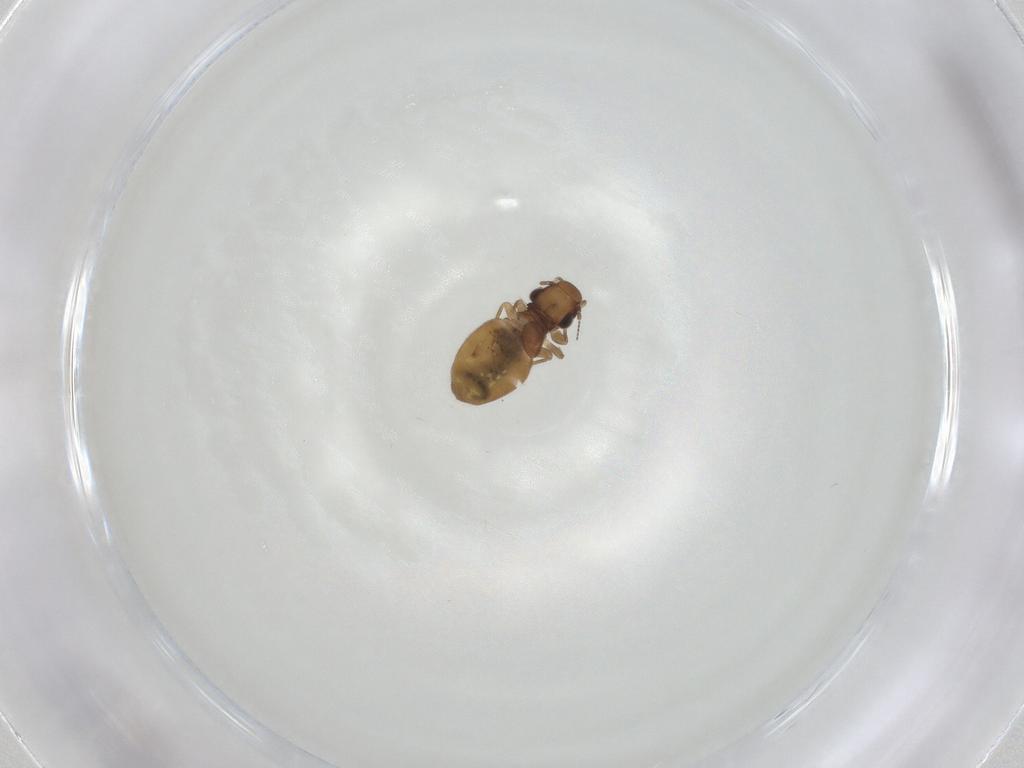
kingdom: Animalia
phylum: Arthropoda
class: Insecta
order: Psocodea
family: Trogiidae
